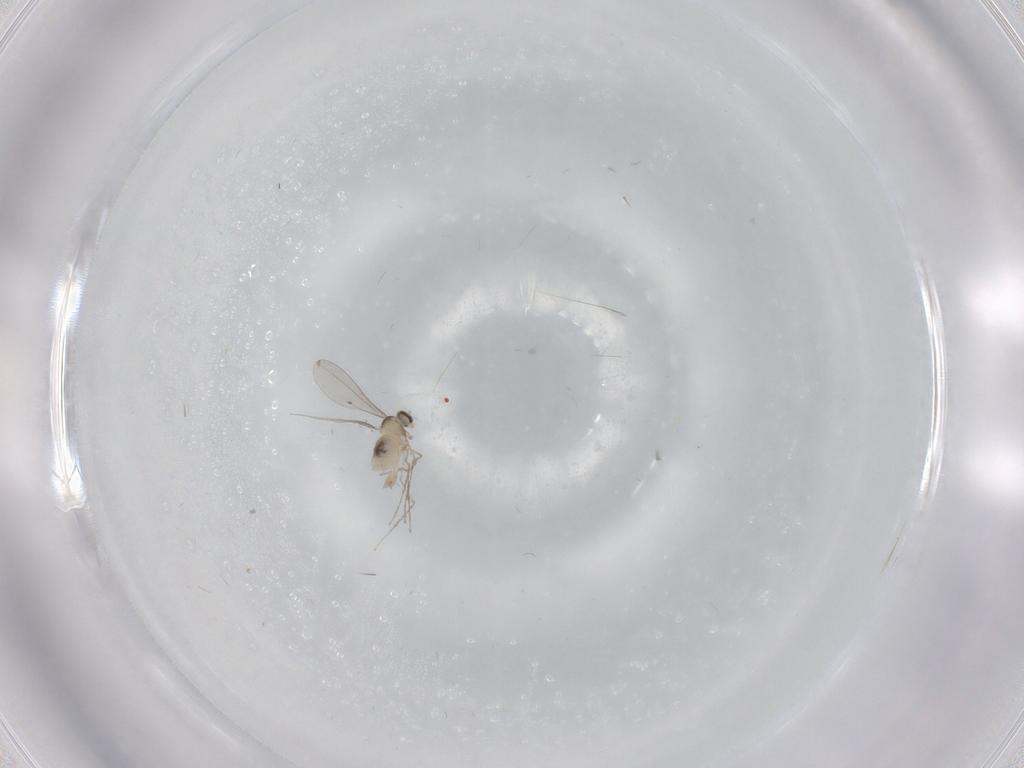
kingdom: Animalia
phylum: Arthropoda
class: Insecta
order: Diptera
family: Cecidomyiidae
